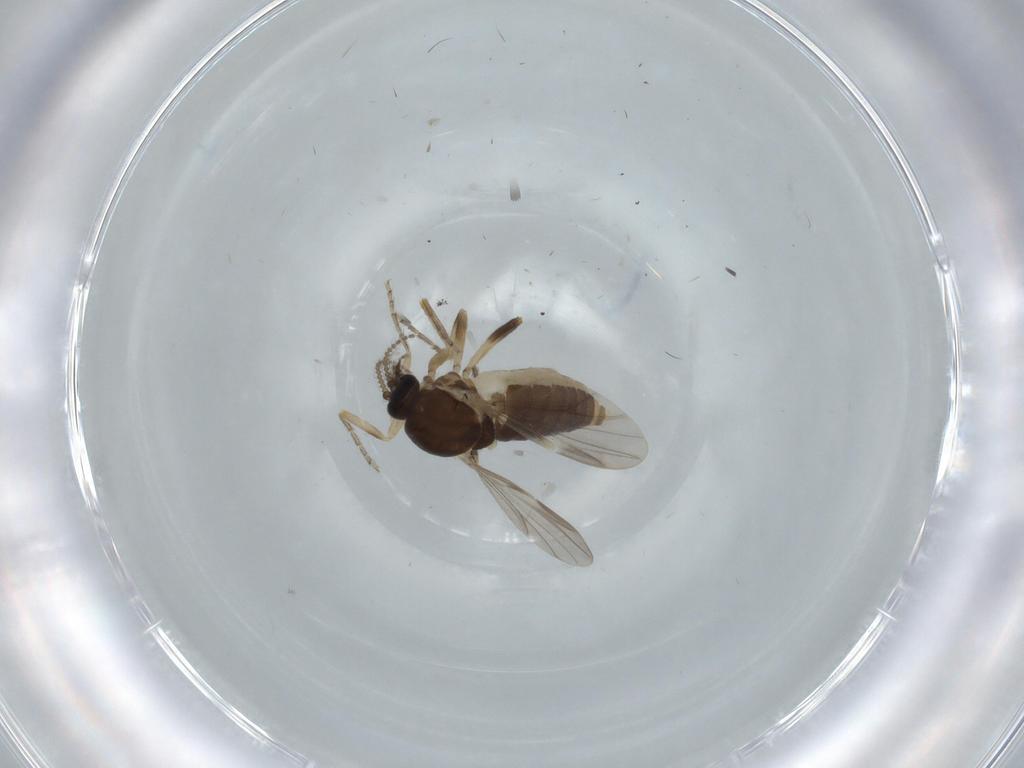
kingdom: Animalia
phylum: Arthropoda
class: Insecta
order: Diptera
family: Ceratopogonidae
